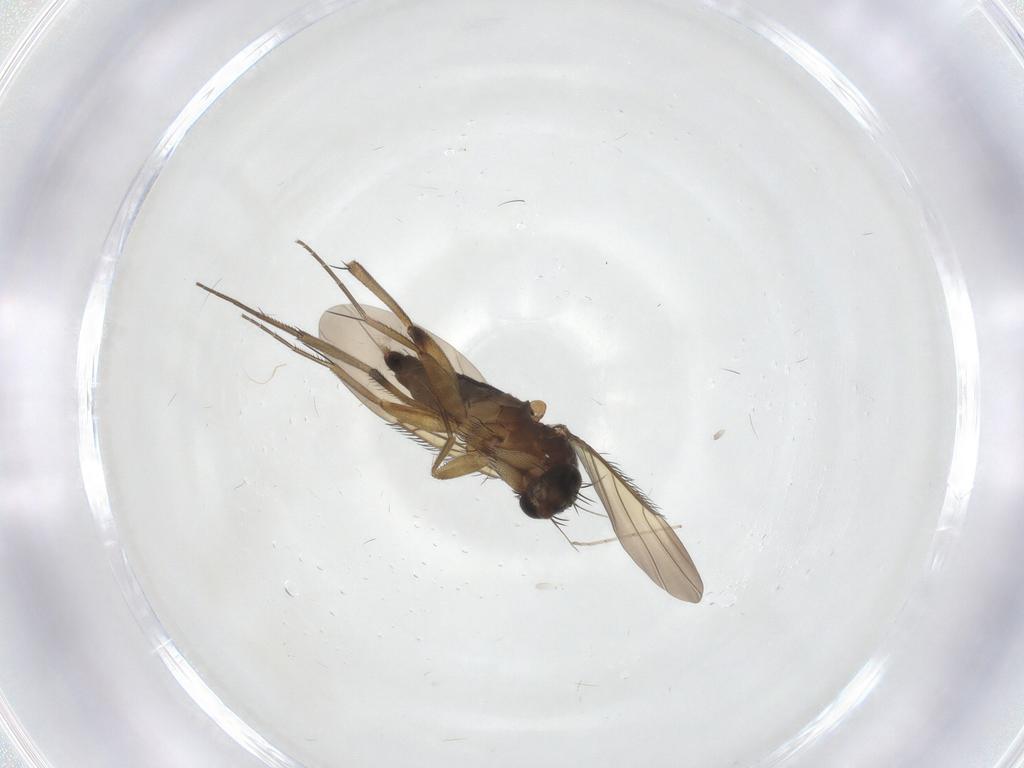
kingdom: Animalia
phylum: Arthropoda
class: Insecta
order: Diptera
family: Phoridae
